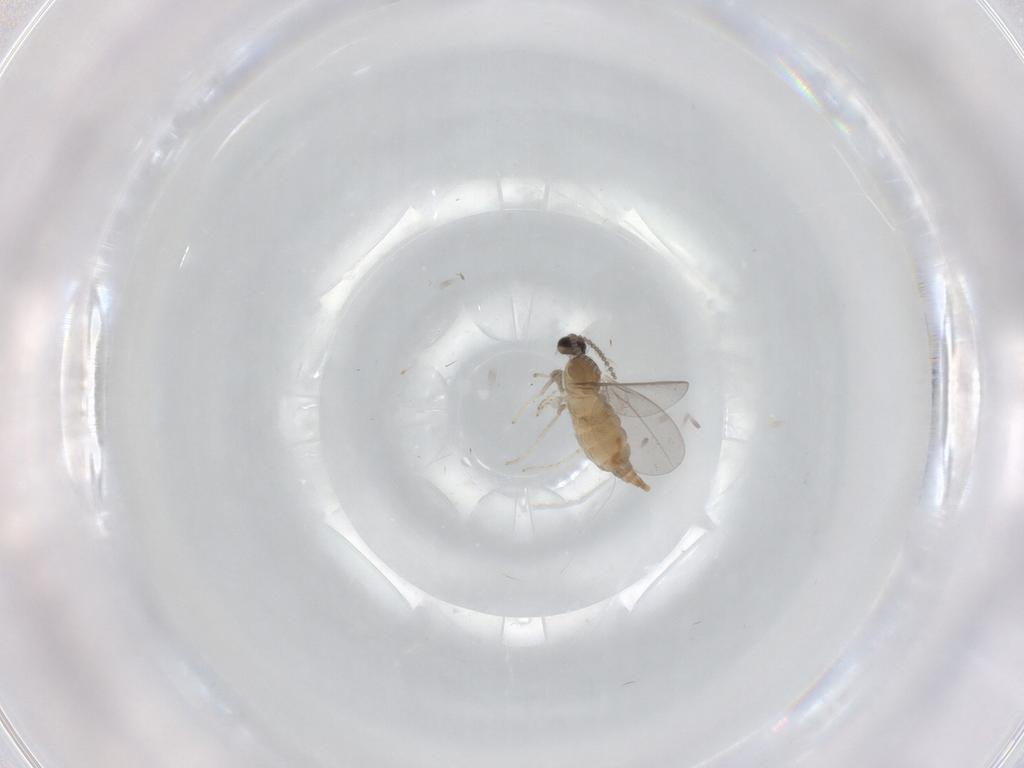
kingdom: Animalia
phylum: Arthropoda
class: Insecta
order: Diptera
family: Cecidomyiidae
